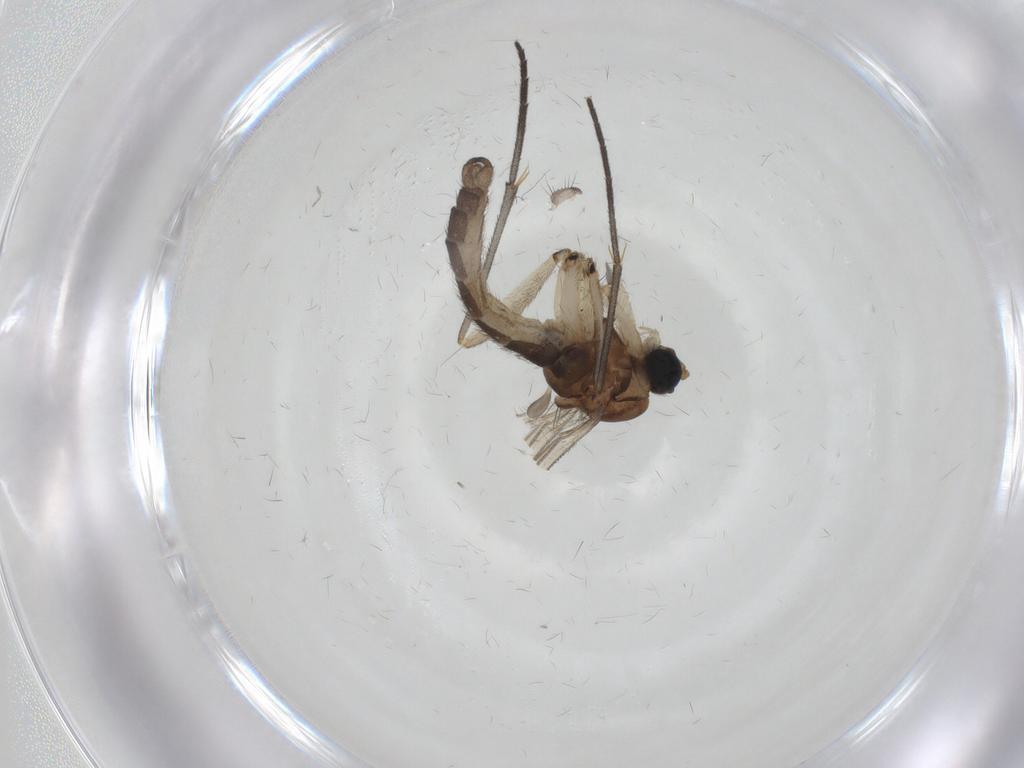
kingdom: Animalia
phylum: Arthropoda
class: Insecta
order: Diptera
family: Sciaridae
